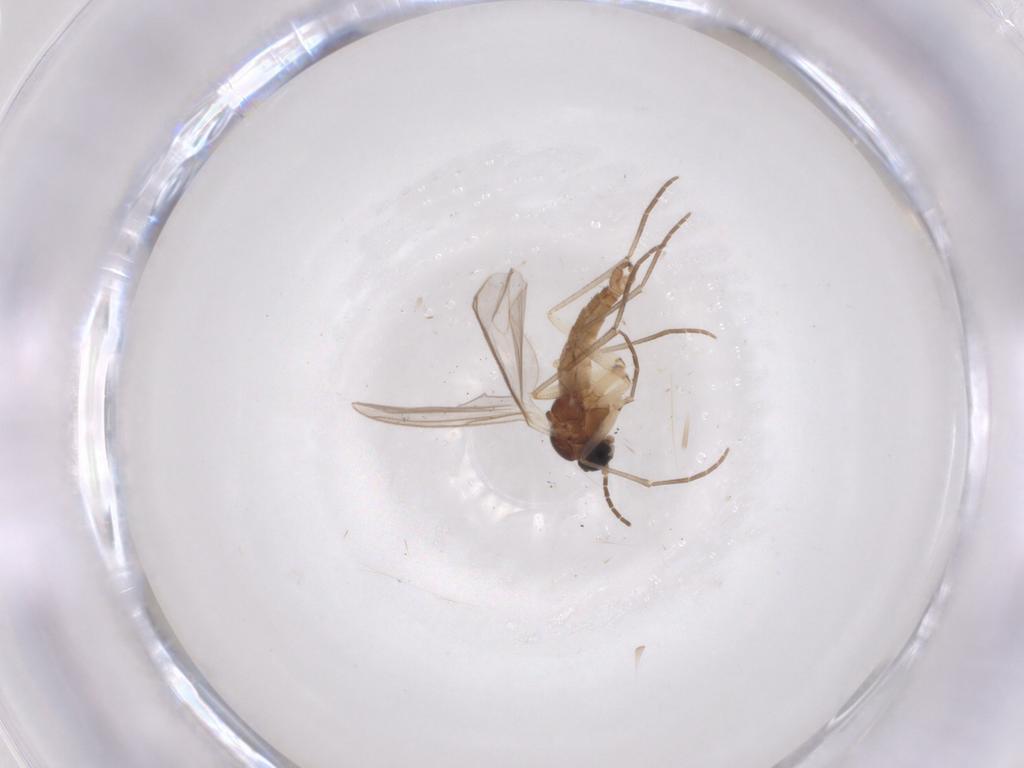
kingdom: Animalia
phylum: Arthropoda
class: Insecta
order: Diptera
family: Sciaridae
